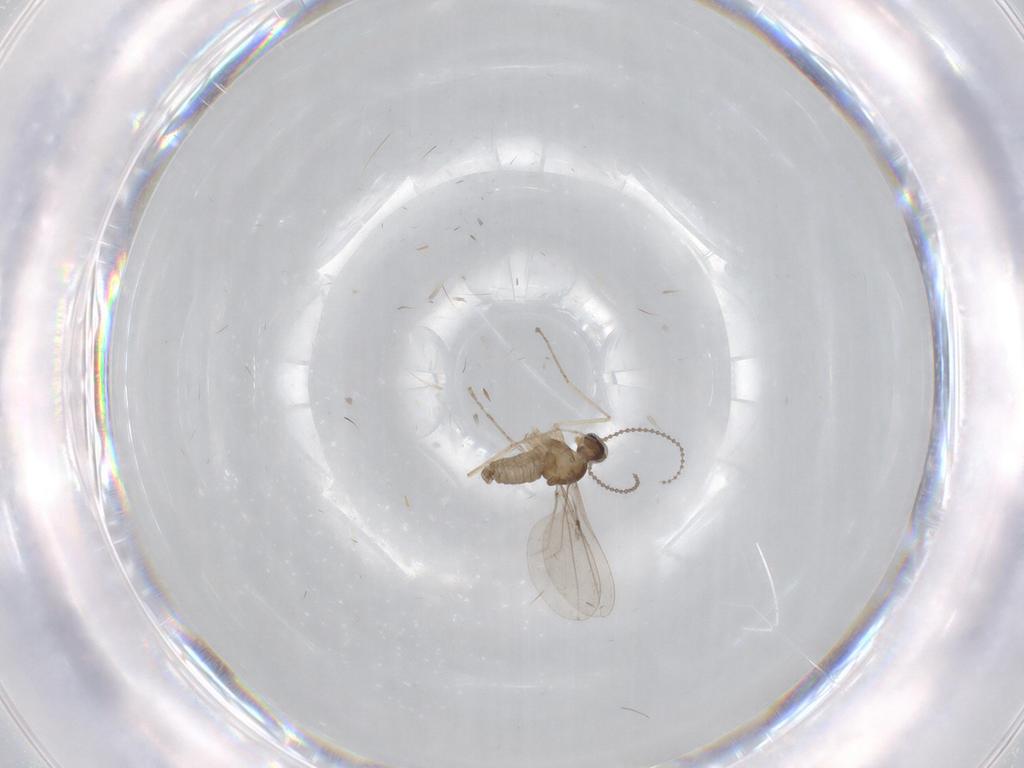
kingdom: Animalia
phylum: Arthropoda
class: Insecta
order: Diptera
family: Cecidomyiidae
